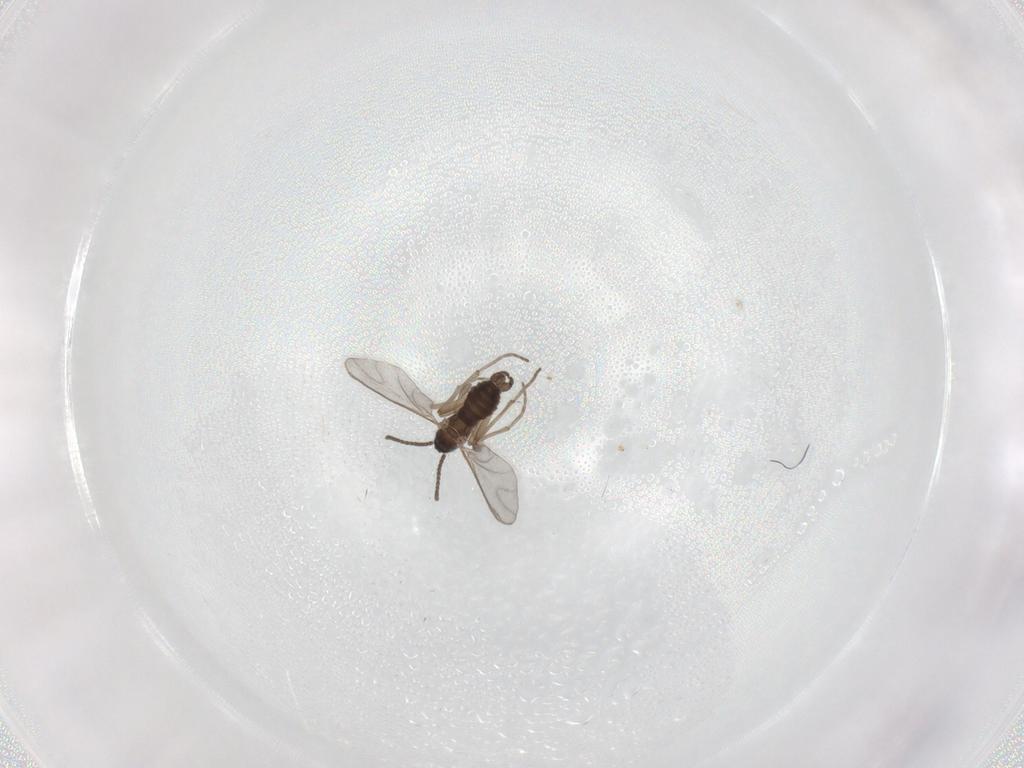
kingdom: Animalia
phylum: Arthropoda
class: Insecta
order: Diptera
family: Sciaridae
